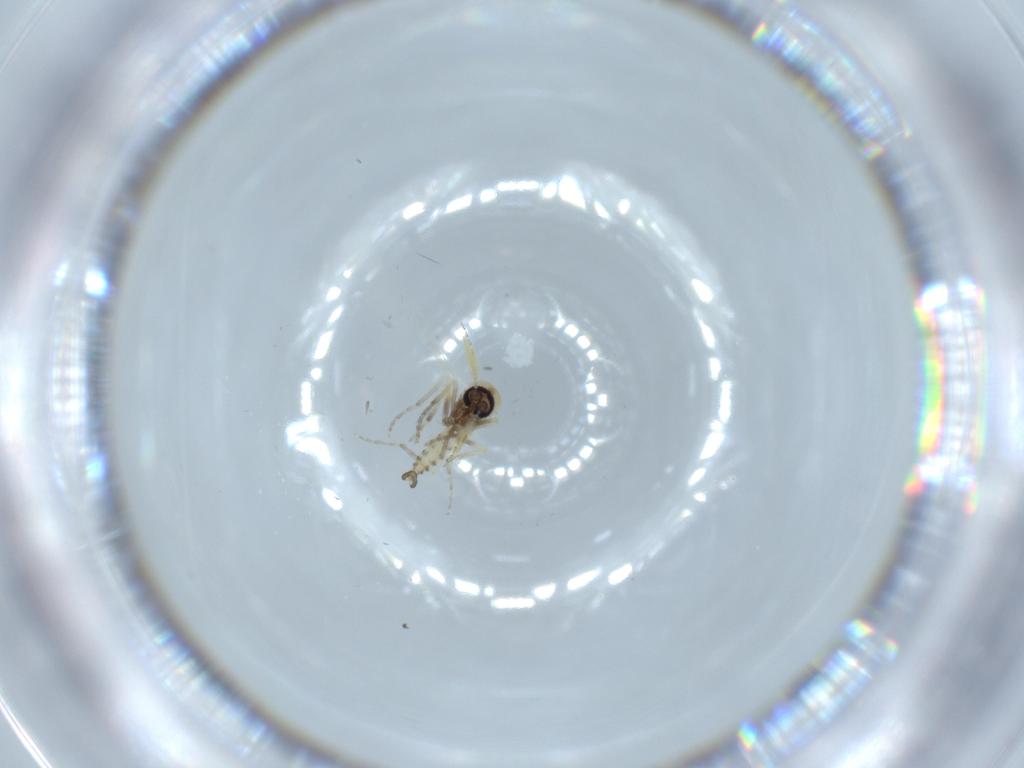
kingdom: Animalia
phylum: Arthropoda
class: Insecta
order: Diptera
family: Ceratopogonidae
